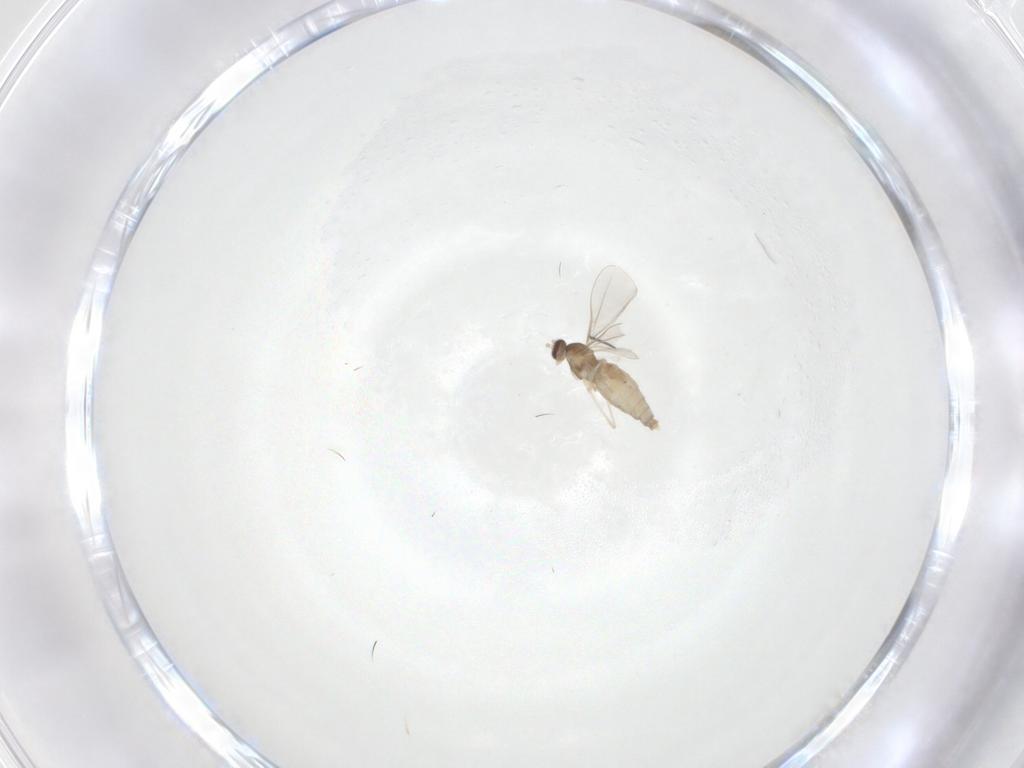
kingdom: Animalia
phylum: Arthropoda
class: Insecta
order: Diptera
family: Cecidomyiidae
